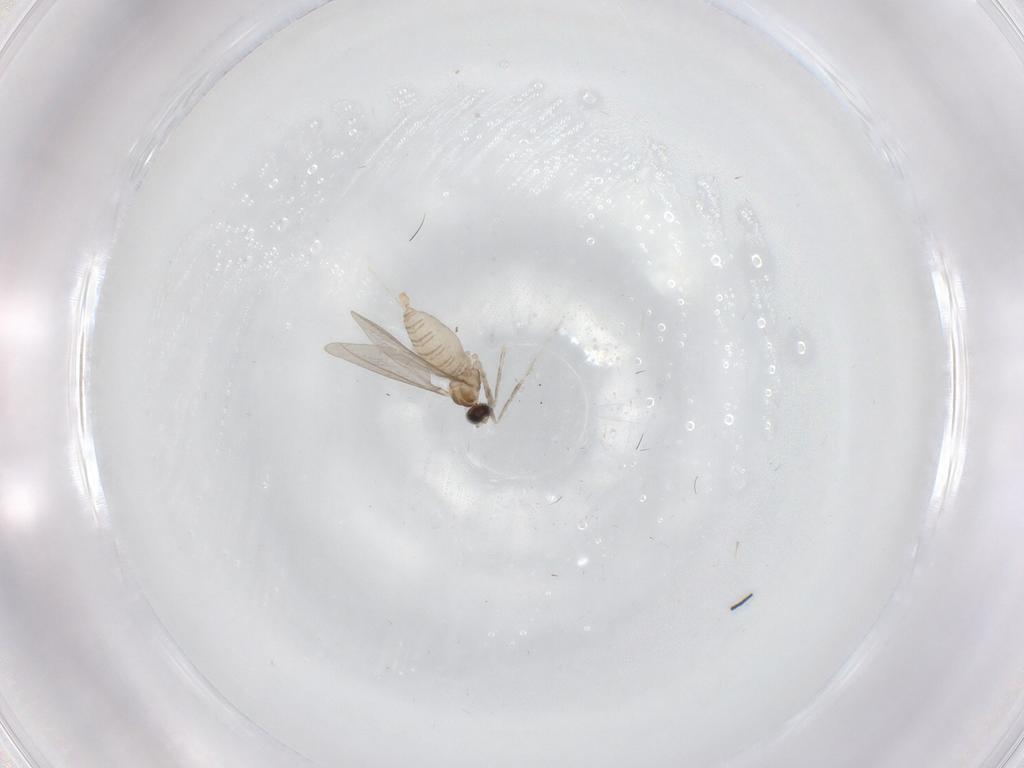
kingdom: Animalia
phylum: Arthropoda
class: Insecta
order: Diptera
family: Cecidomyiidae
